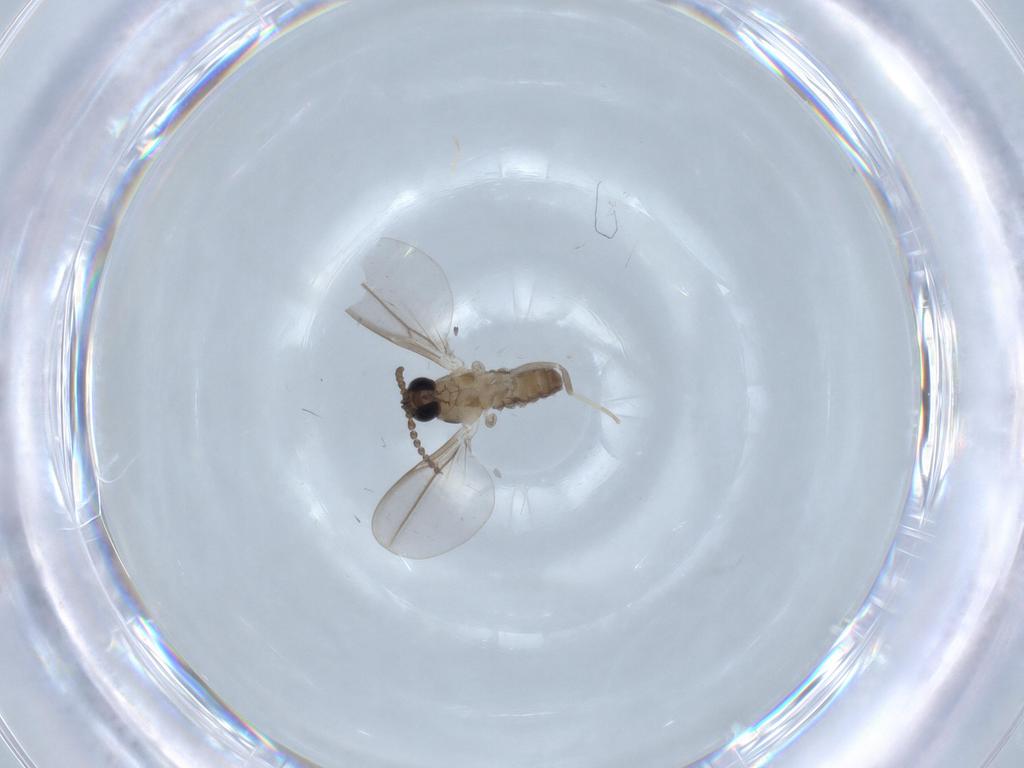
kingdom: Animalia
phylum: Arthropoda
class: Insecta
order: Diptera
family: Cecidomyiidae
